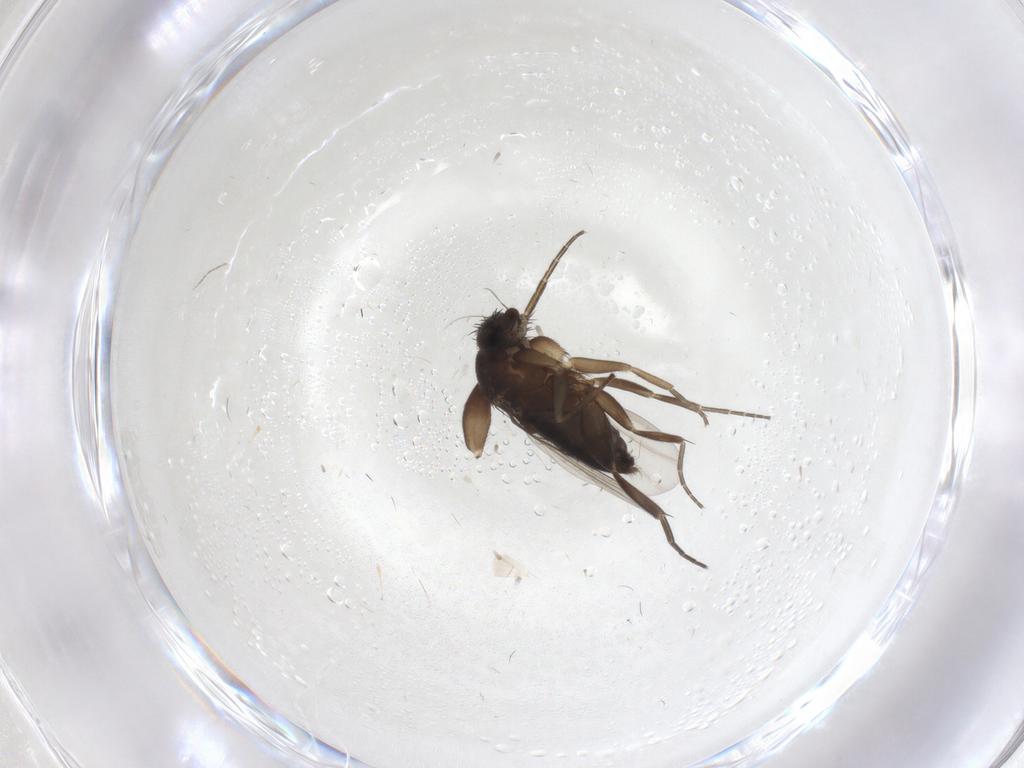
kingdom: Animalia
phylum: Arthropoda
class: Insecta
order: Diptera
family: Phoridae
